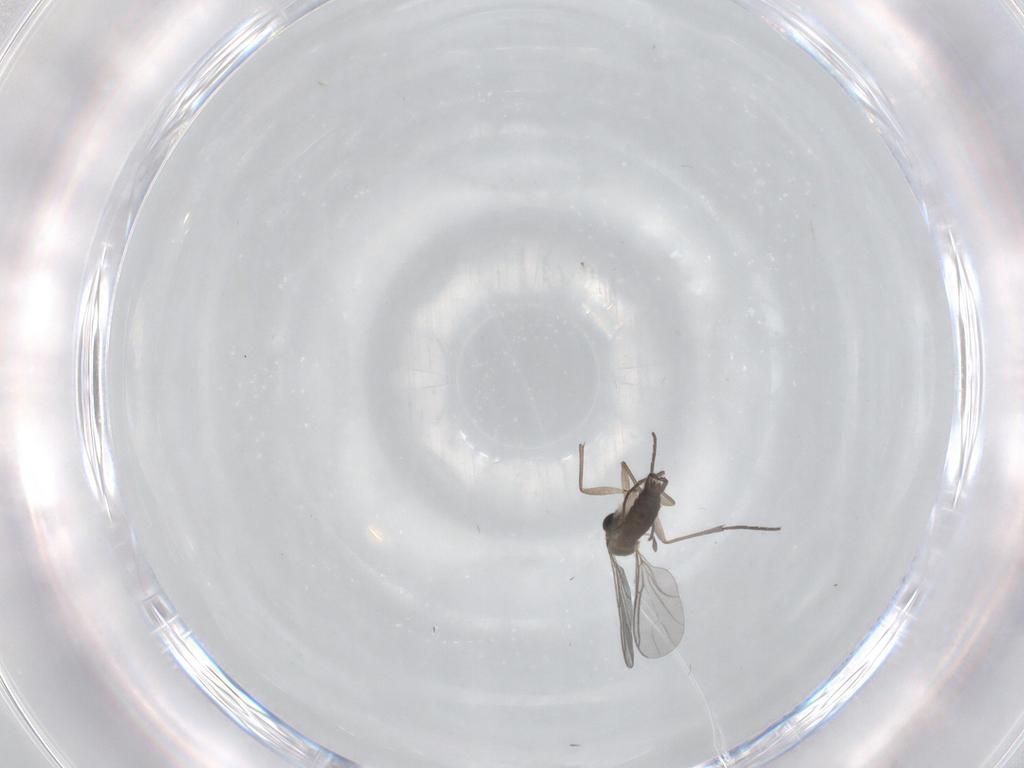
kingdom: Animalia
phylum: Arthropoda
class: Insecta
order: Diptera
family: Sciaridae
